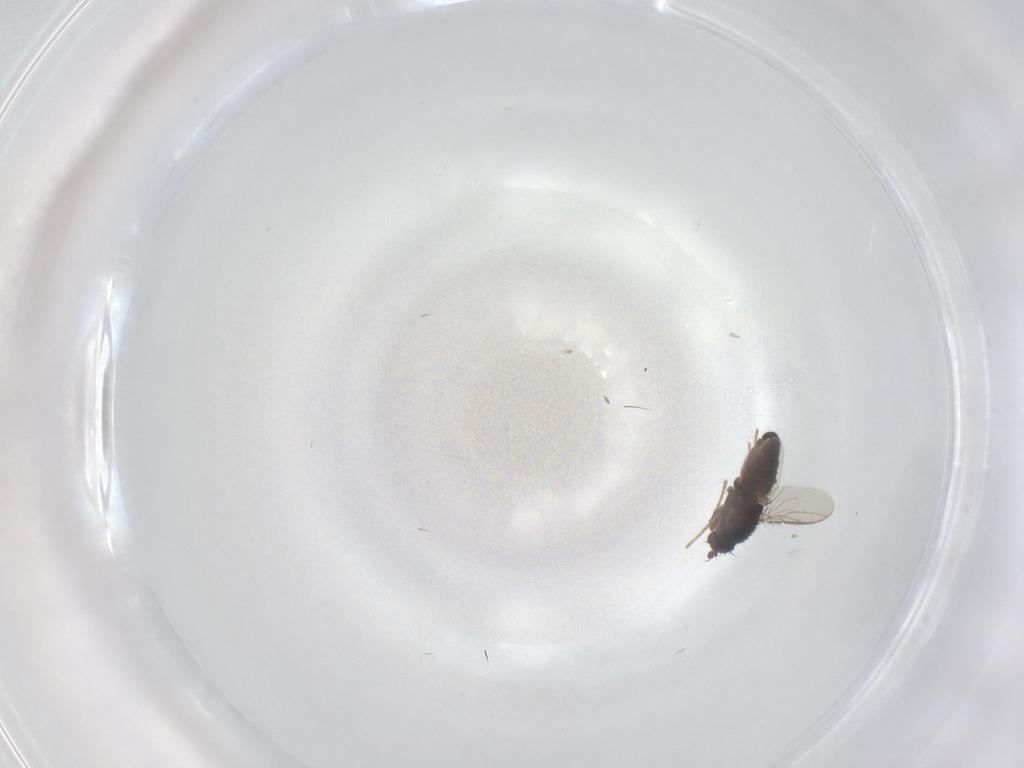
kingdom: Animalia
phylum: Arthropoda
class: Insecta
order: Diptera
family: Sphaeroceridae
